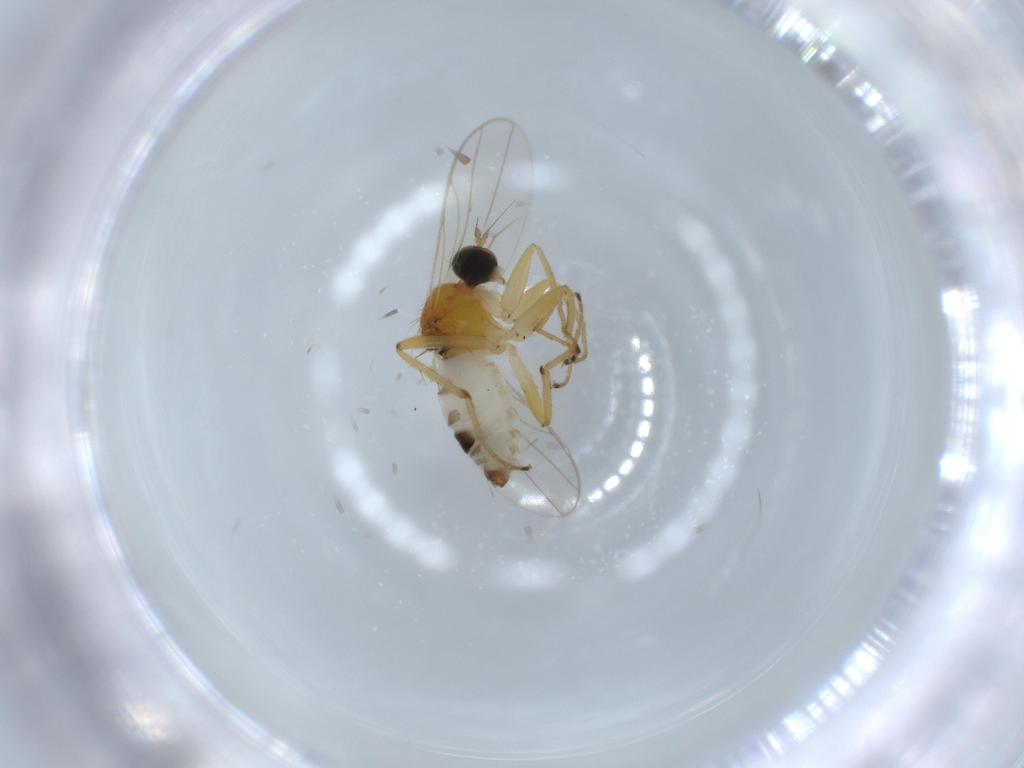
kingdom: Animalia
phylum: Arthropoda
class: Insecta
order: Diptera
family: Hybotidae
